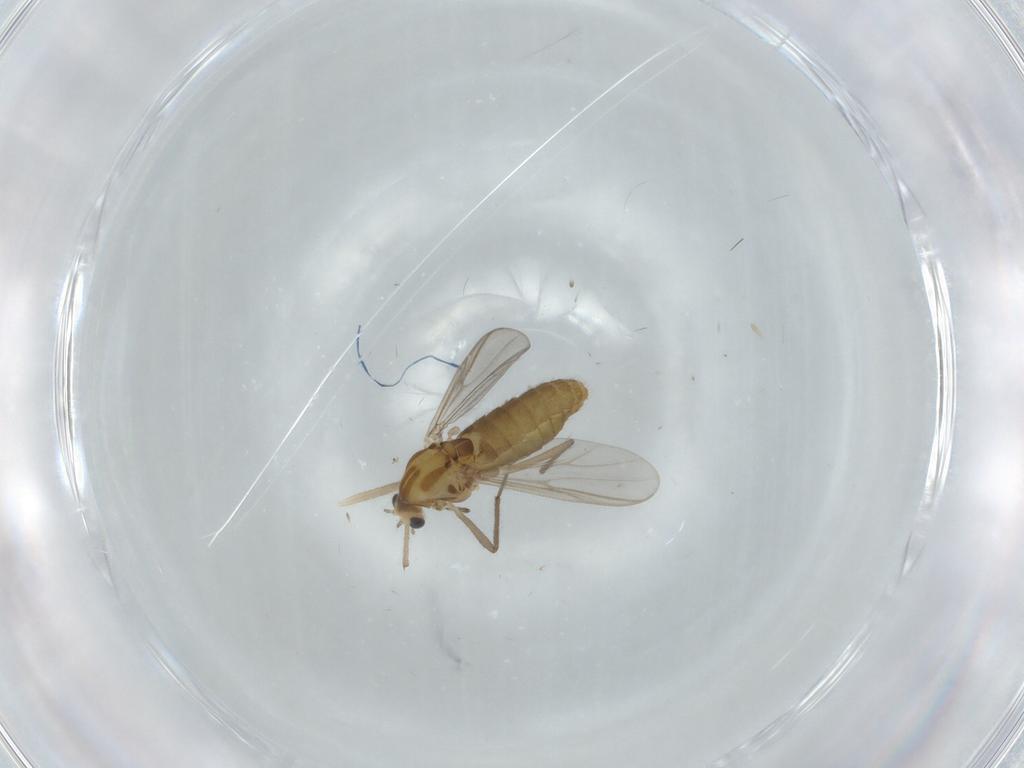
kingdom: Animalia
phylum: Arthropoda
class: Insecta
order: Diptera
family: Chironomidae
